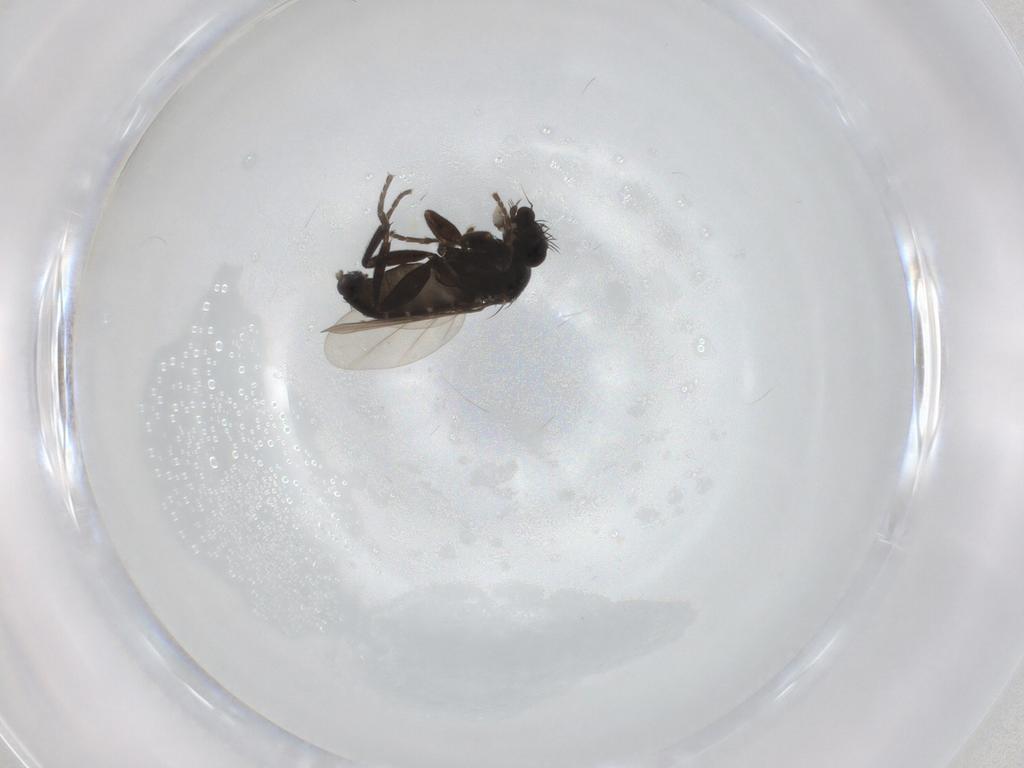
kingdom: Animalia
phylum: Arthropoda
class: Insecta
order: Diptera
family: Phoridae
